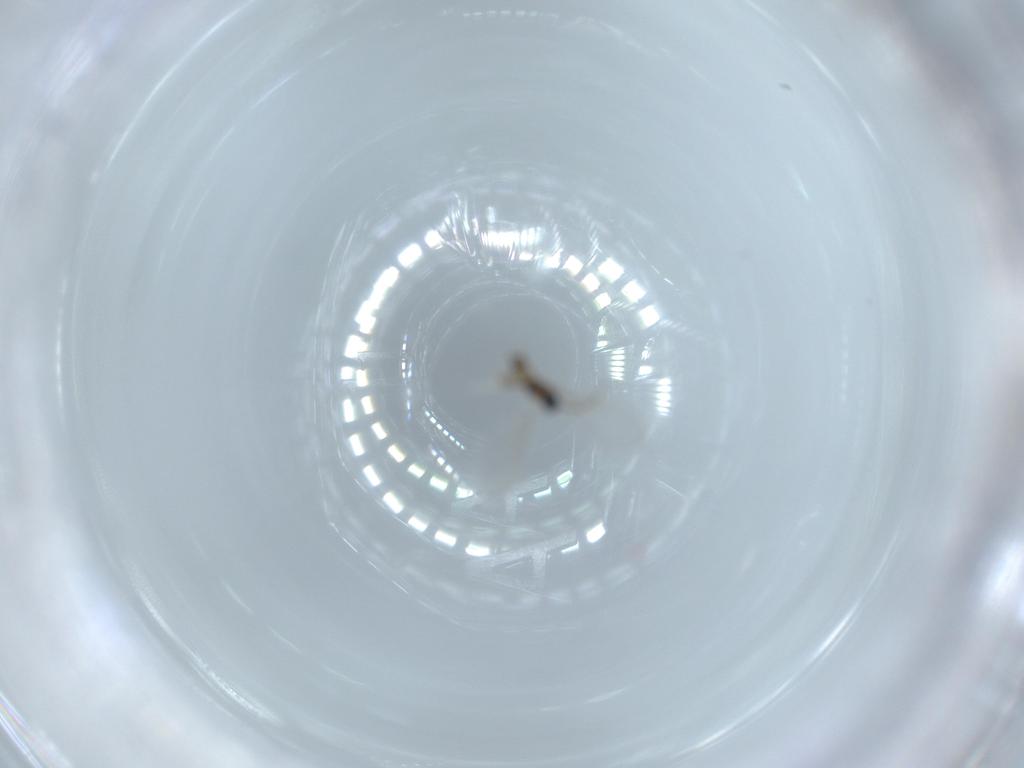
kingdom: Animalia
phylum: Arthropoda
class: Insecta
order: Diptera
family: Cecidomyiidae
